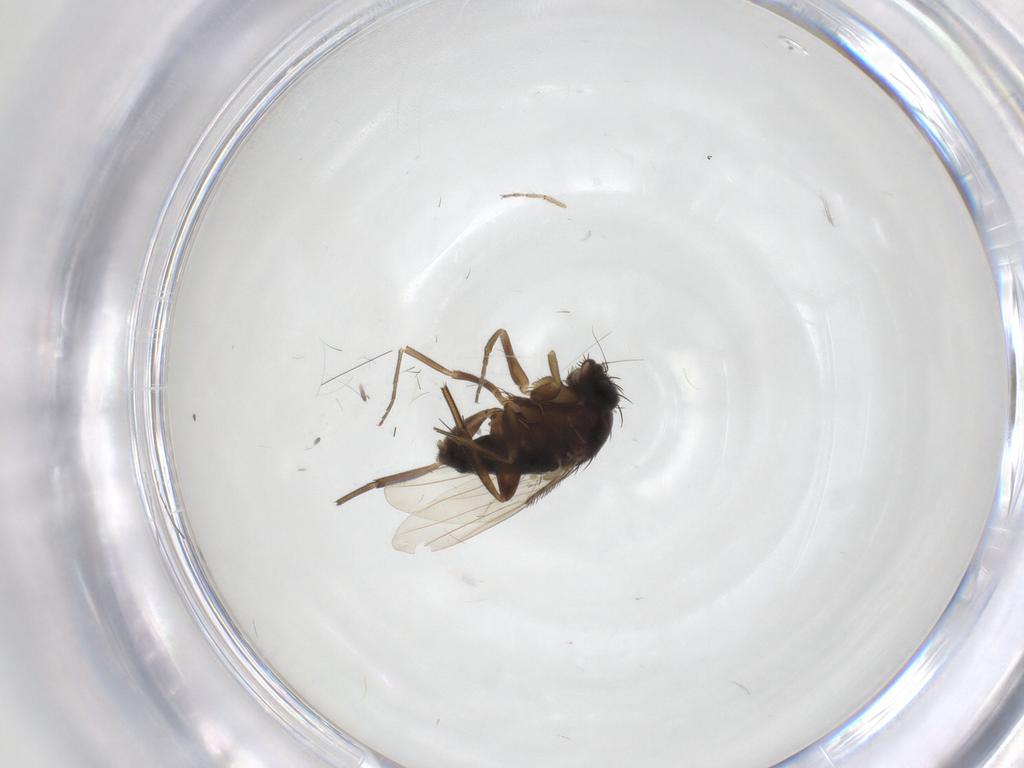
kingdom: Animalia
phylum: Arthropoda
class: Insecta
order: Diptera
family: Phoridae
